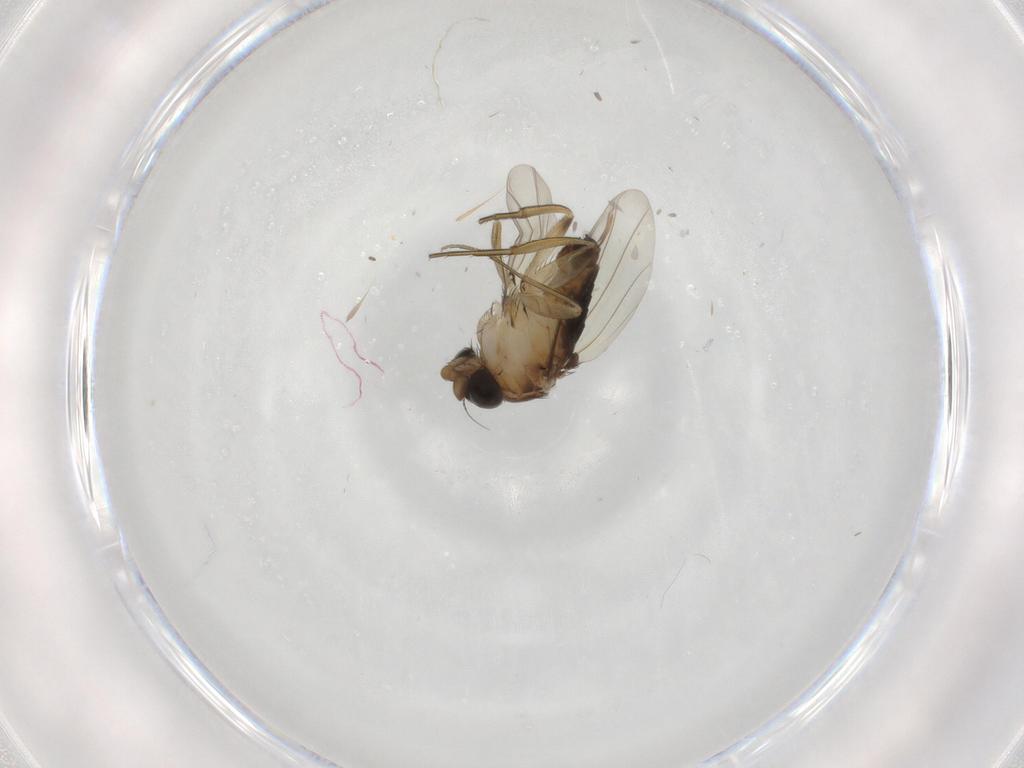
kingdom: Animalia
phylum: Arthropoda
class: Insecta
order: Diptera
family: Phoridae
